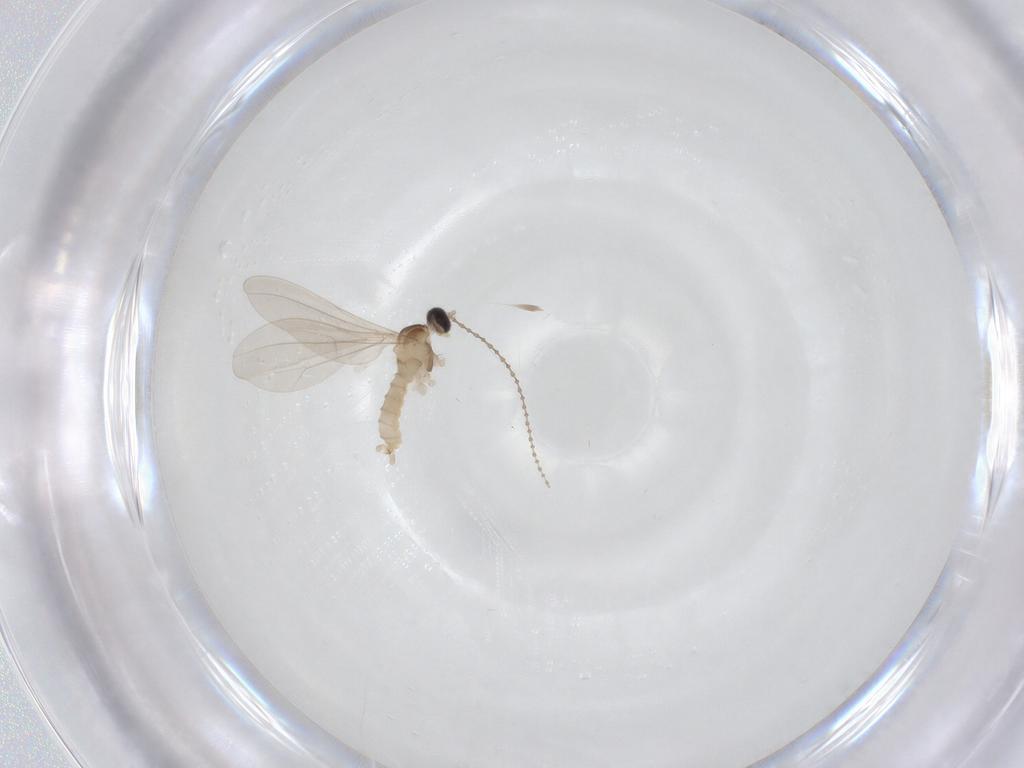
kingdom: Animalia
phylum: Arthropoda
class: Insecta
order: Diptera
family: Cecidomyiidae
